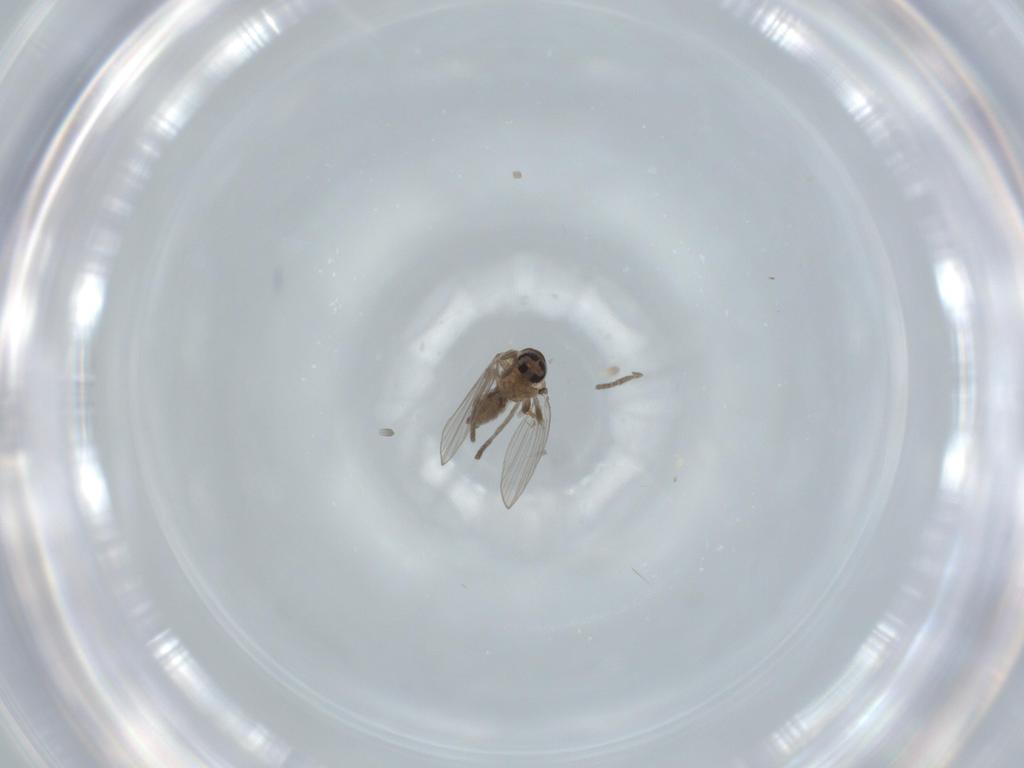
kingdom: Animalia
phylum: Arthropoda
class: Insecta
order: Diptera
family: Psychodidae
